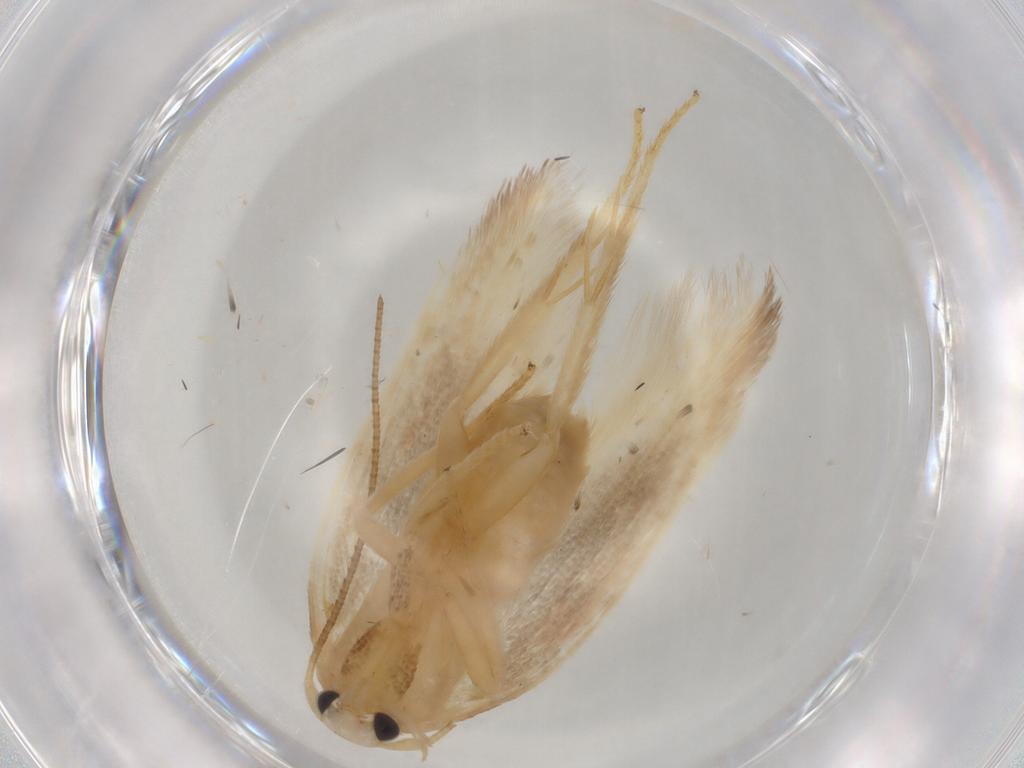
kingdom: Animalia
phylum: Arthropoda
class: Insecta
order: Lepidoptera
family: Geometridae
